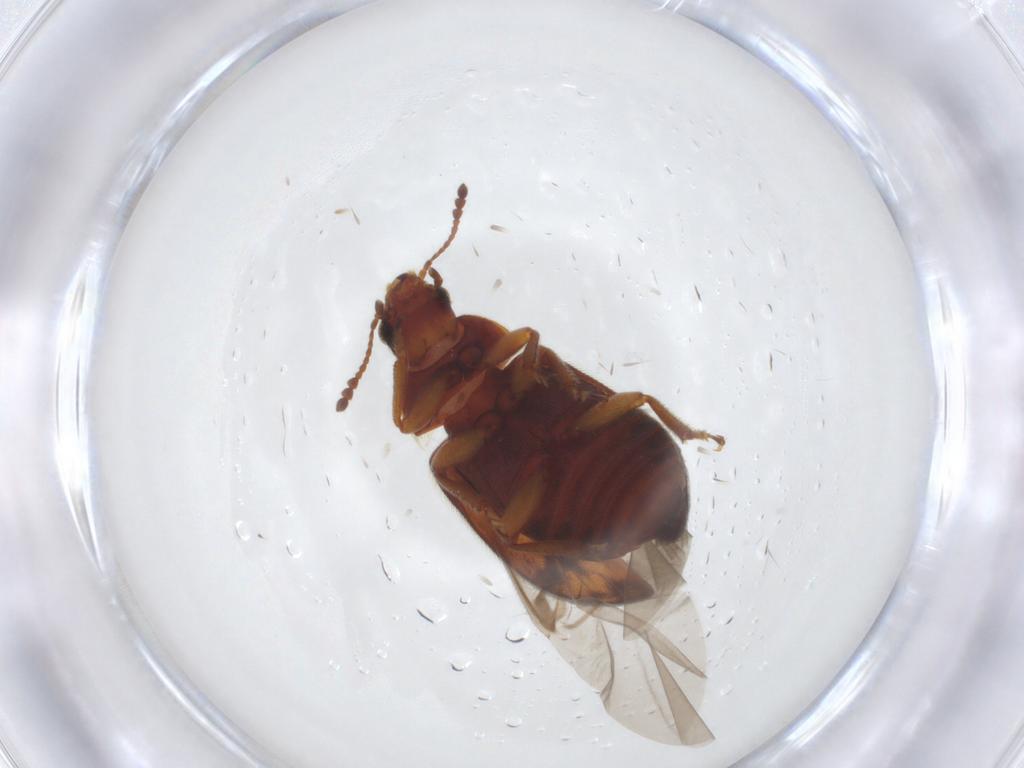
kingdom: Animalia
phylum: Arthropoda
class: Insecta
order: Coleoptera
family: Byturidae
